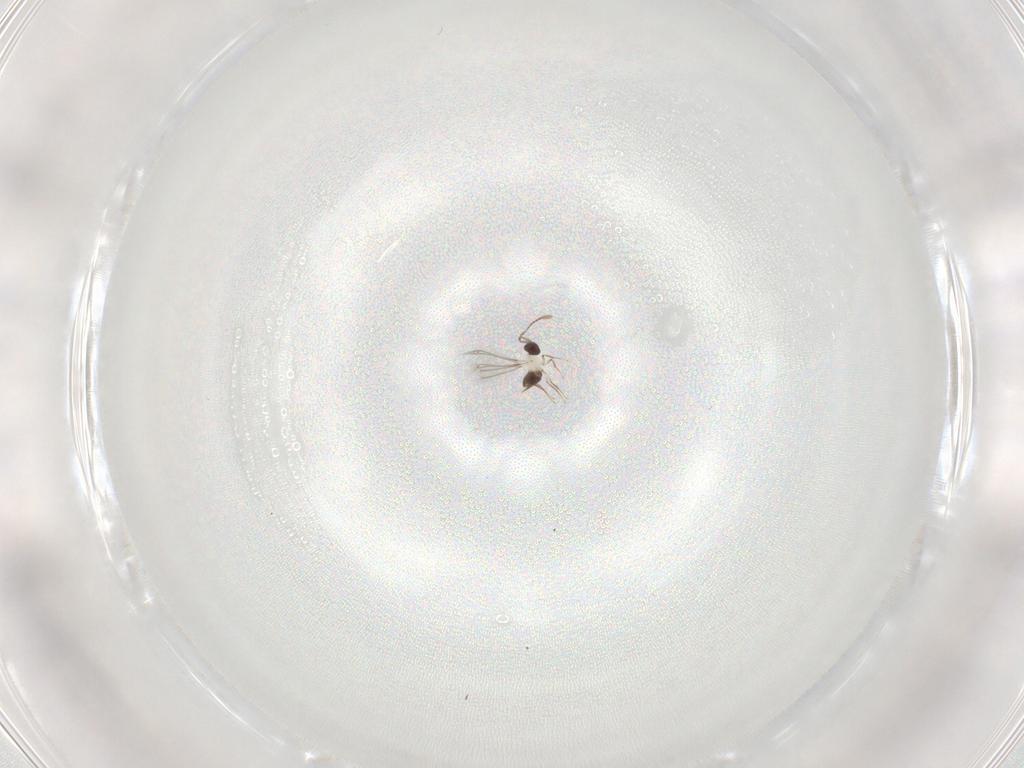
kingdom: Animalia
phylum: Arthropoda
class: Insecta
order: Hymenoptera
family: Mymaridae
